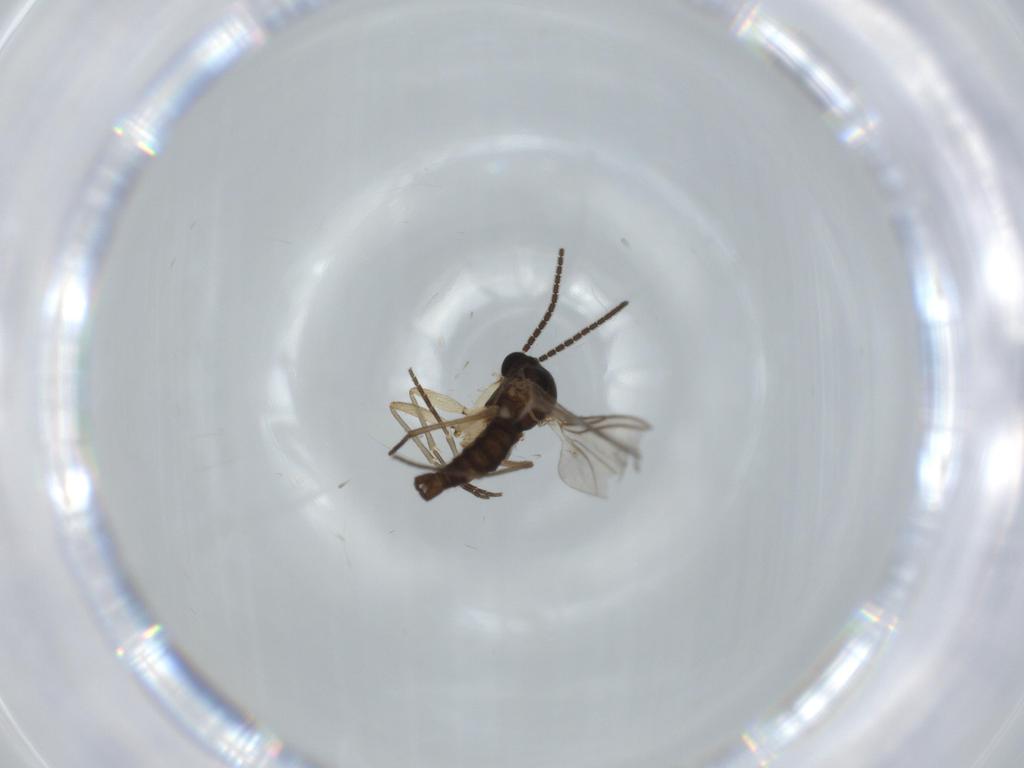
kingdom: Animalia
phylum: Arthropoda
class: Insecta
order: Diptera
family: Sciaridae
